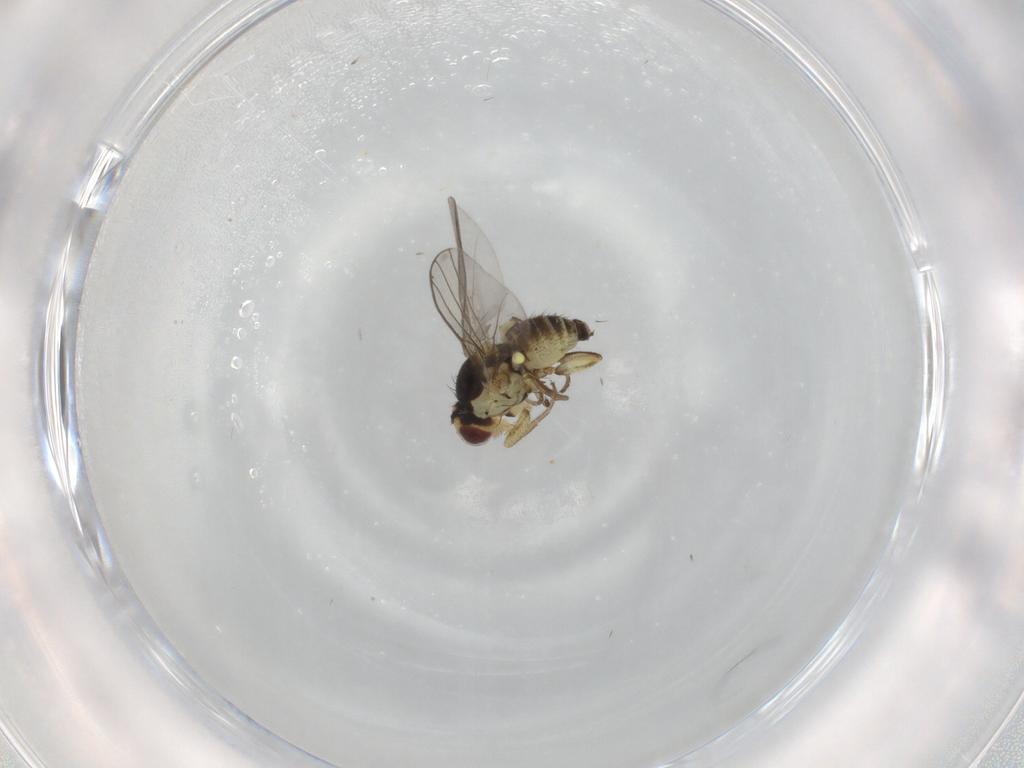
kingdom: Animalia
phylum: Arthropoda
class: Insecta
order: Diptera
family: Agromyzidae
